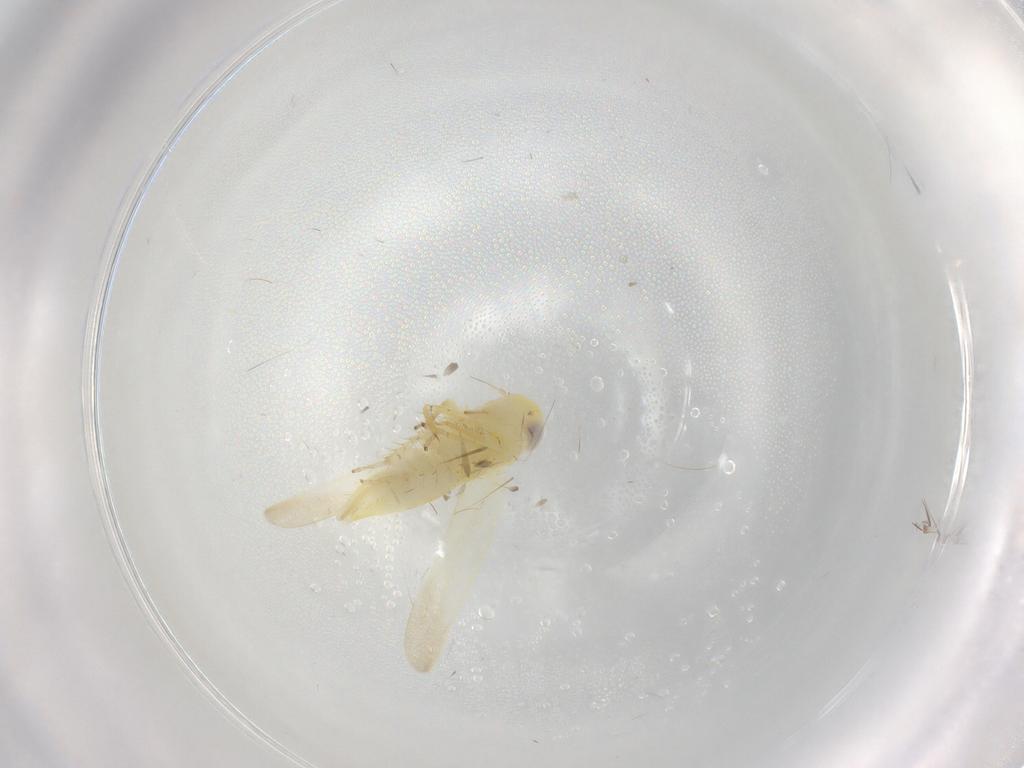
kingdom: Animalia
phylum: Arthropoda
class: Insecta
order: Hemiptera
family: Cicadellidae
